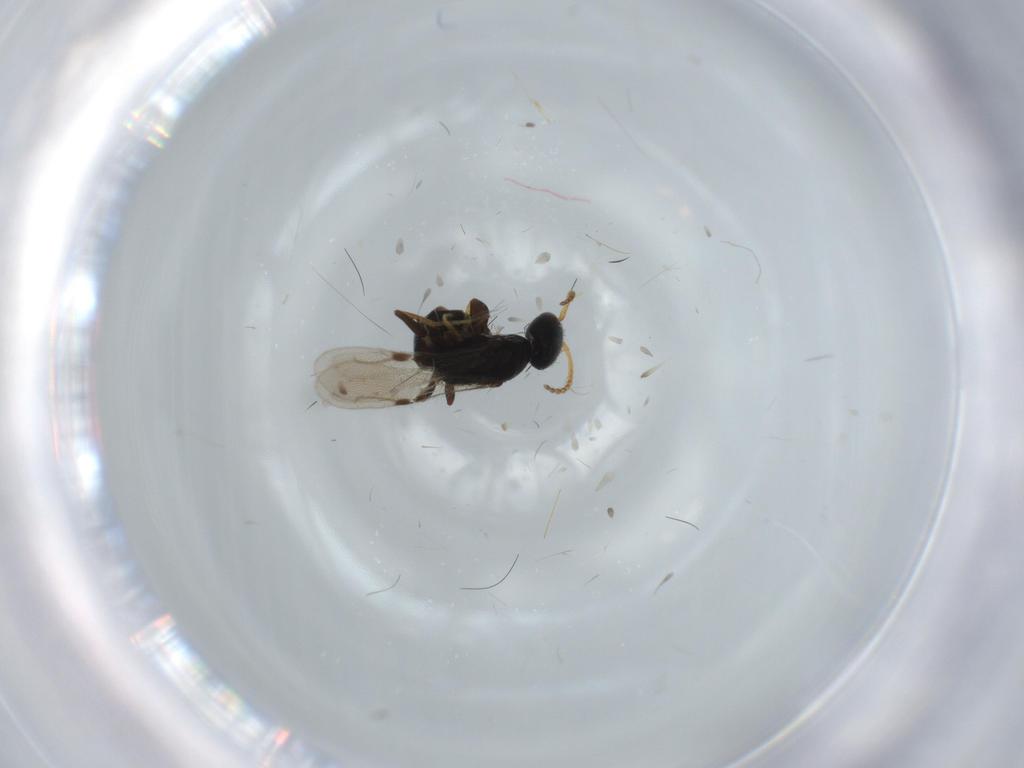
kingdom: Animalia
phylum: Arthropoda
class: Insecta
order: Hymenoptera
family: Bethylidae
